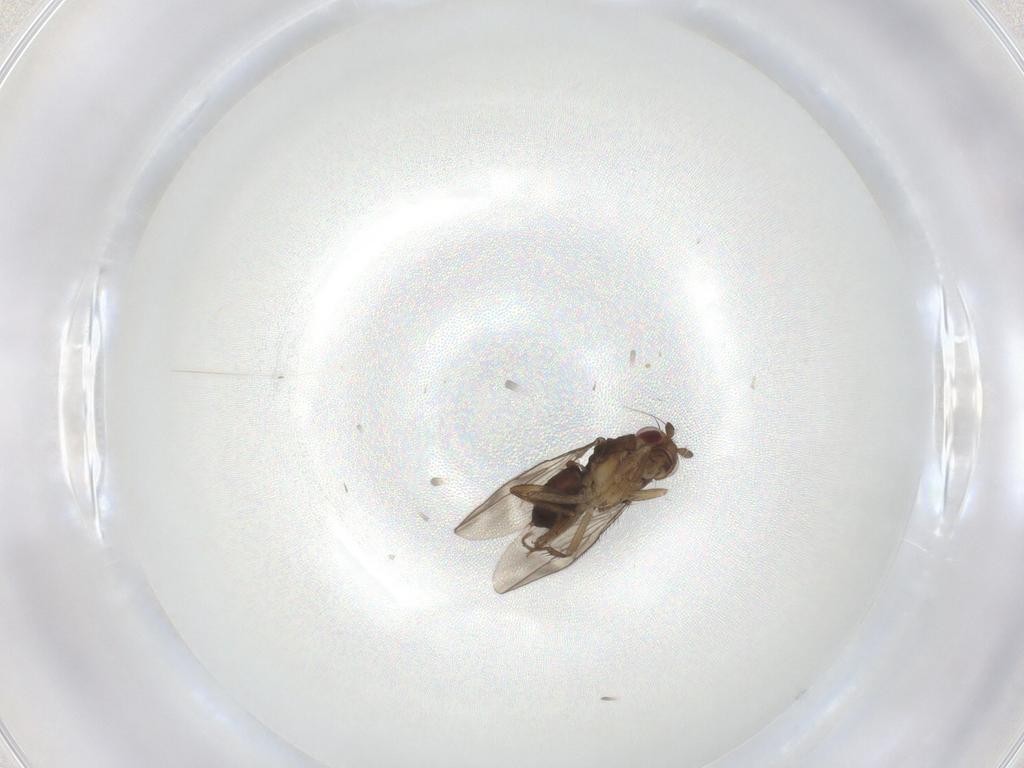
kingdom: Animalia
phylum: Arthropoda
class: Insecta
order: Diptera
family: Sphaeroceridae
